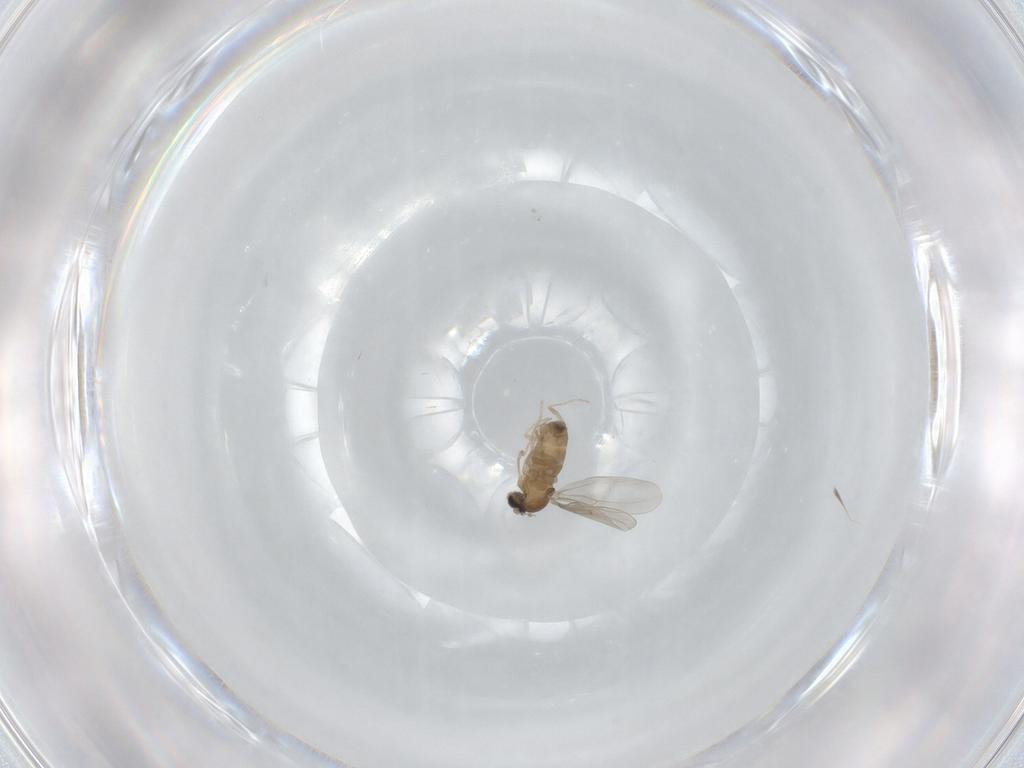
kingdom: Animalia
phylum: Arthropoda
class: Insecta
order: Diptera
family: Cecidomyiidae
